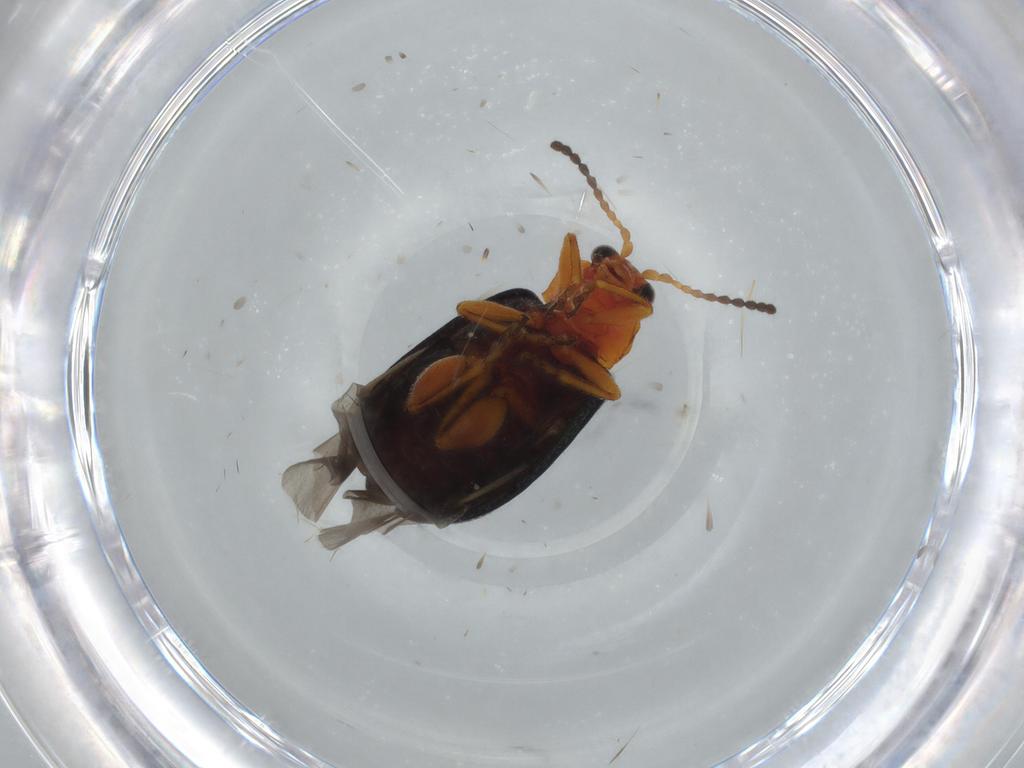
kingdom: Animalia
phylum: Arthropoda
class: Insecta
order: Coleoptera
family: Chrysomelidae
